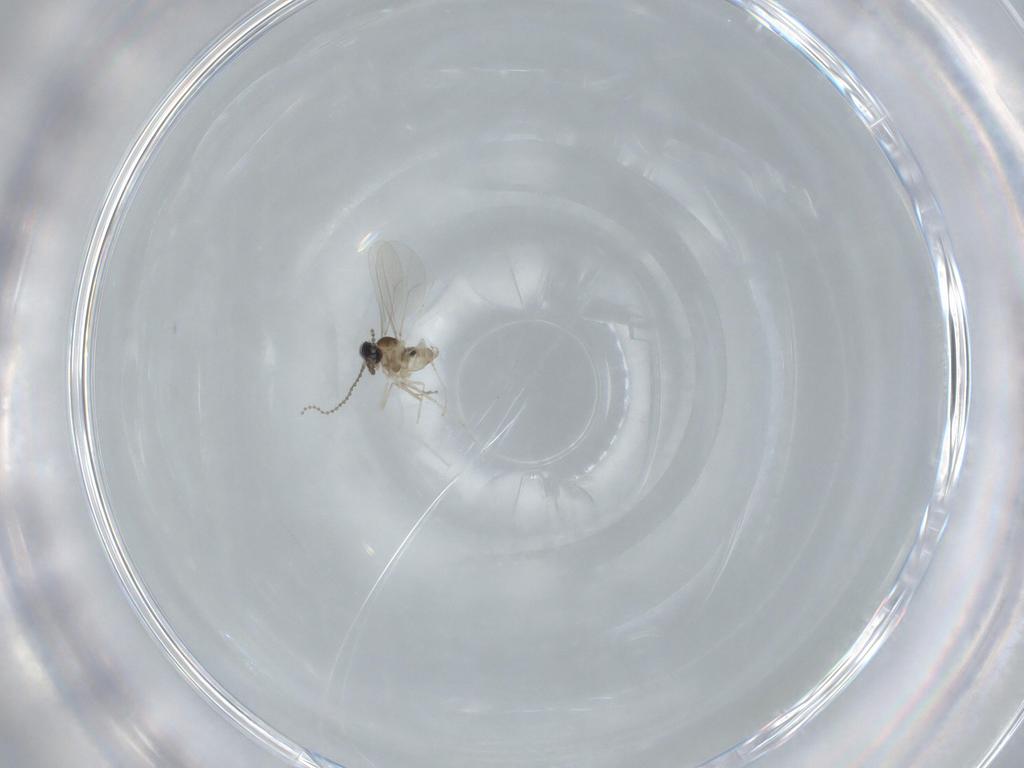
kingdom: Animalia
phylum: Arthropoda
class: Insecta
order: Diptera
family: Cecidomyiidae
